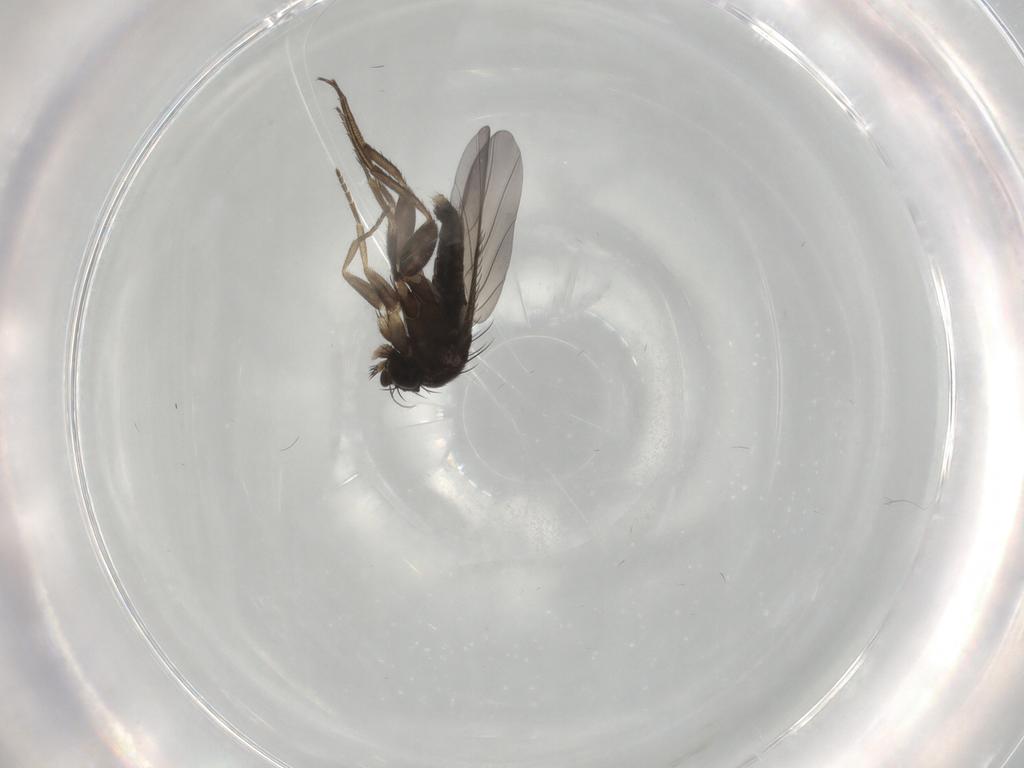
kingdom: Animalia
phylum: Arthropoda
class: Insecta
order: Diptera
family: Phoridae
